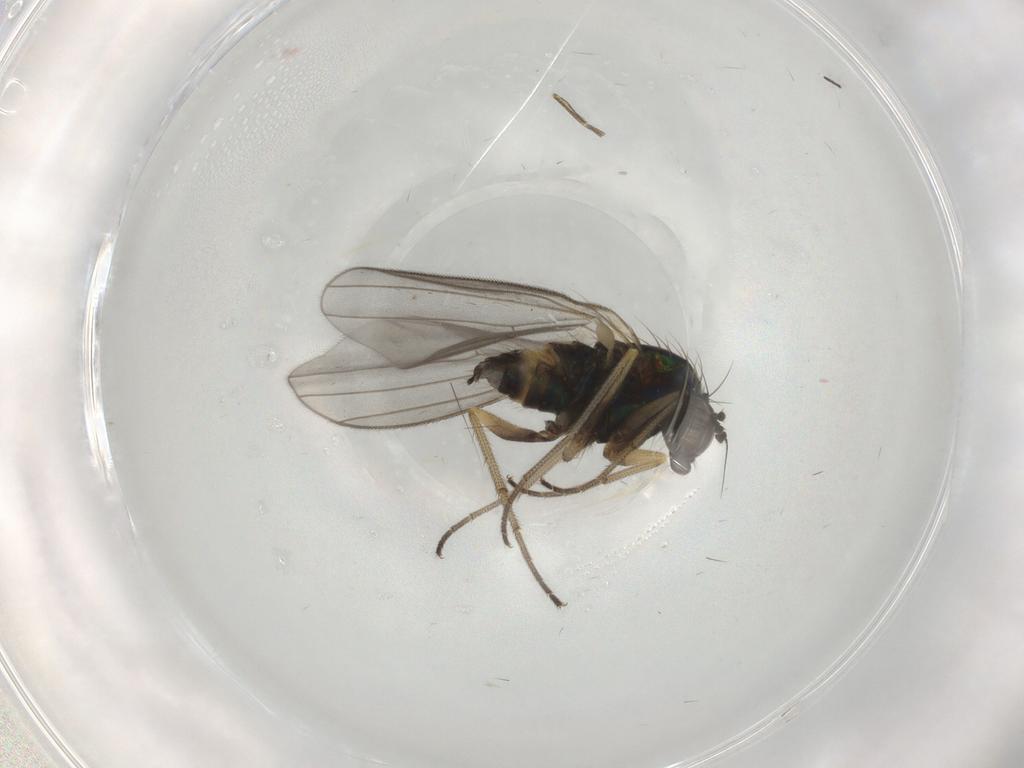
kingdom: Animalia
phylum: Arthropoda
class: Insecta
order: Diptera
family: Dolichopodidae
